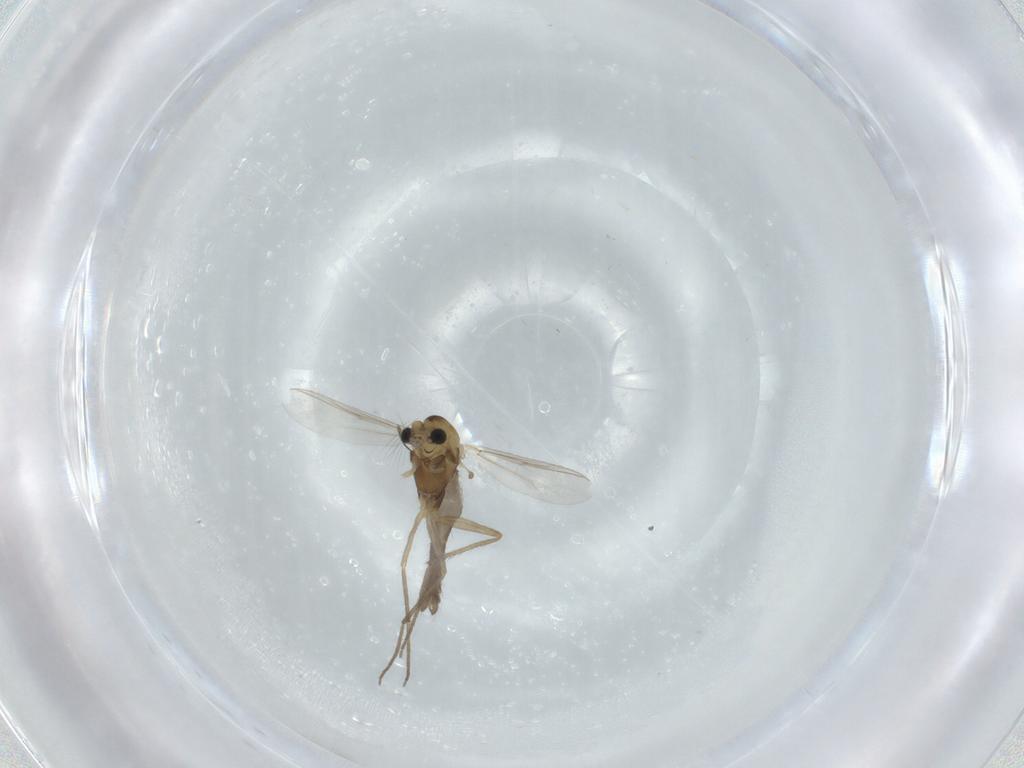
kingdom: Animalia
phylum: Arthropoda
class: Insecta
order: Diptera
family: Chironomidae
